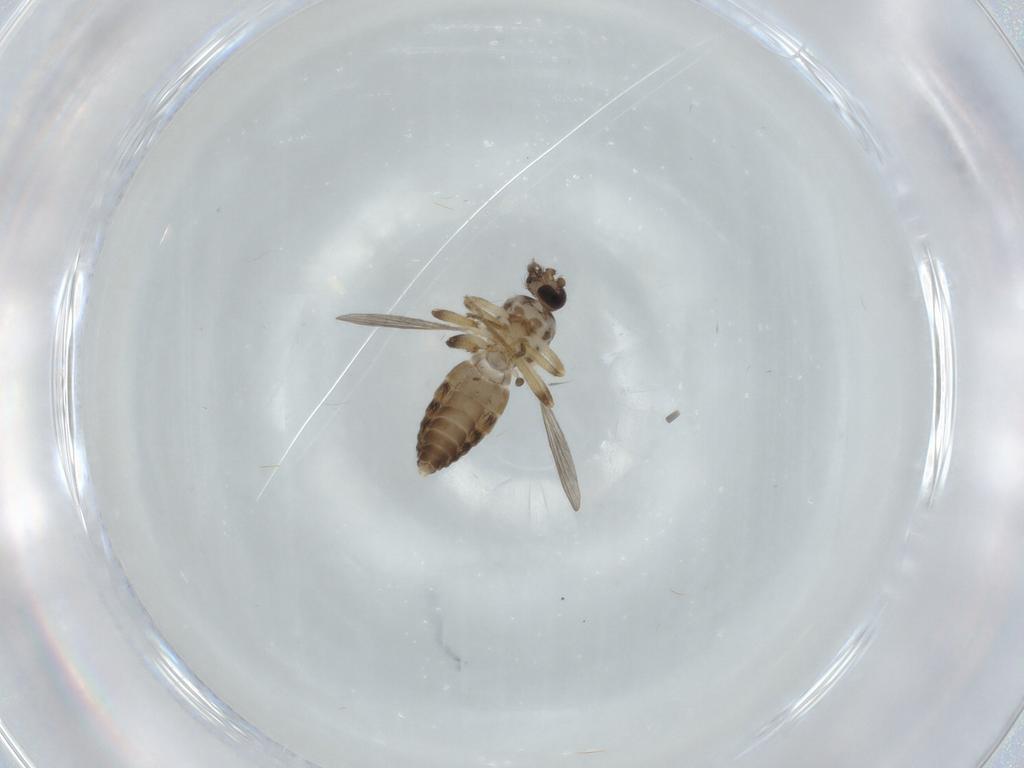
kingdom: Animalia
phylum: Arthropoda
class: Insecta
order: Diptera
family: Ceratopogonidae
